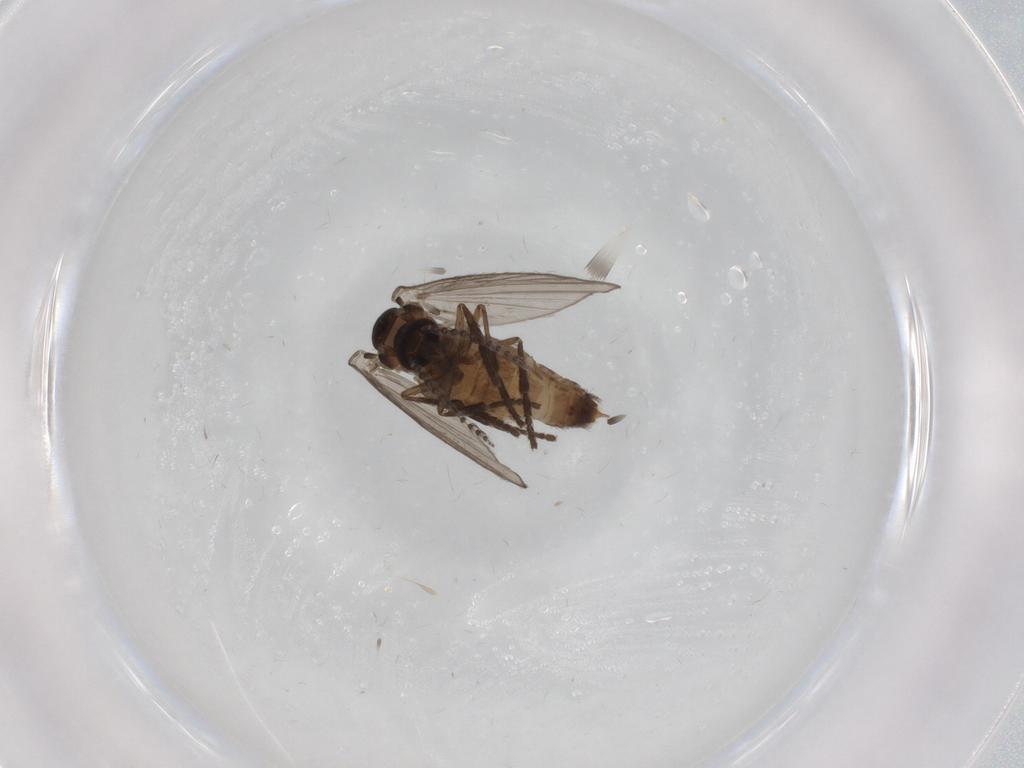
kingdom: Animalia
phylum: Arthropoda
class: Insecta
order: Diptera
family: Psychodidae
